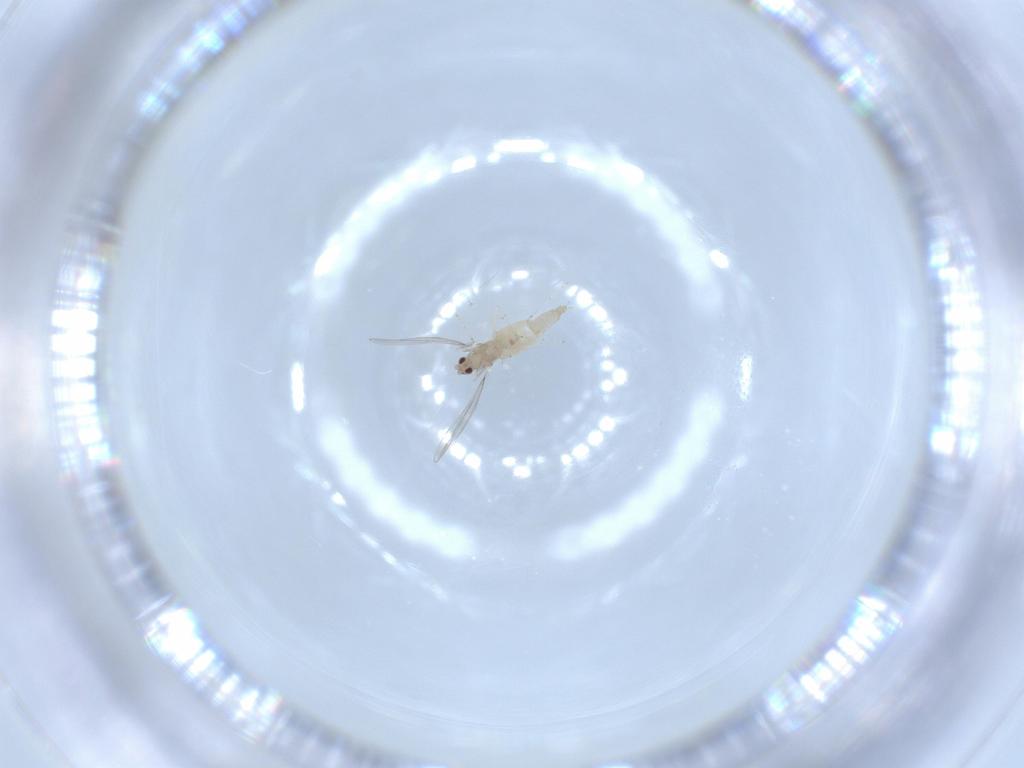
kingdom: Animalia
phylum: Arthropoda
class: Insecta
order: Diptera
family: Cecidomyiidae
